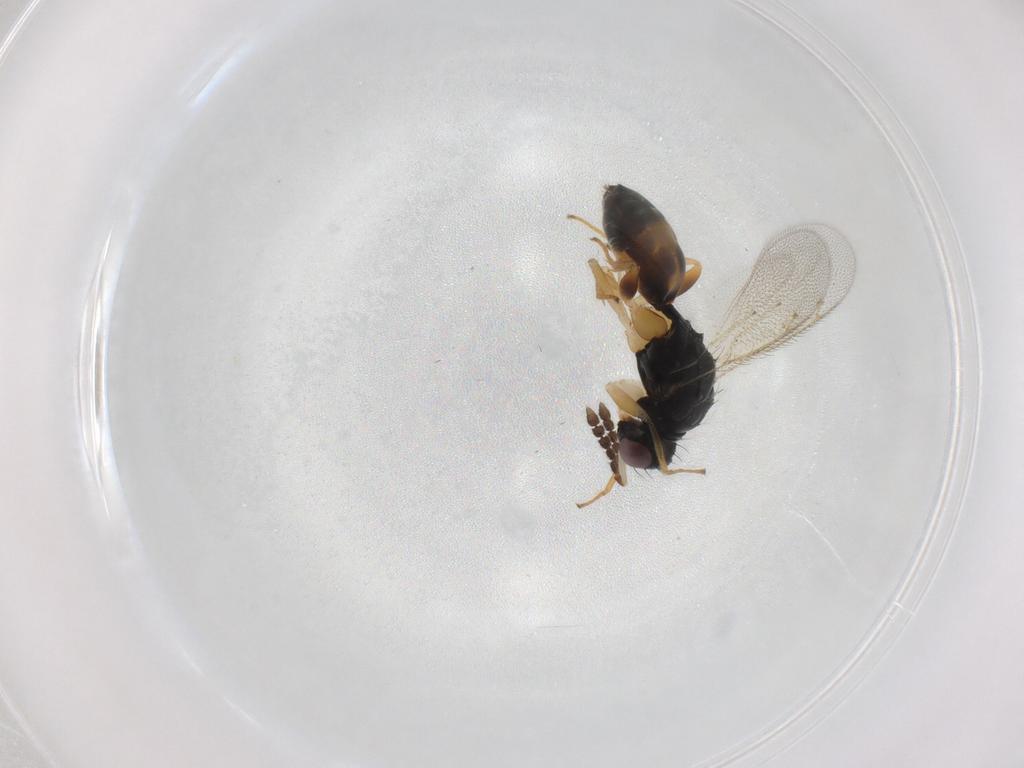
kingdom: Animalia
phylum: Arthropoda
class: Insecta
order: Hymenoptera
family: Eulophidae
